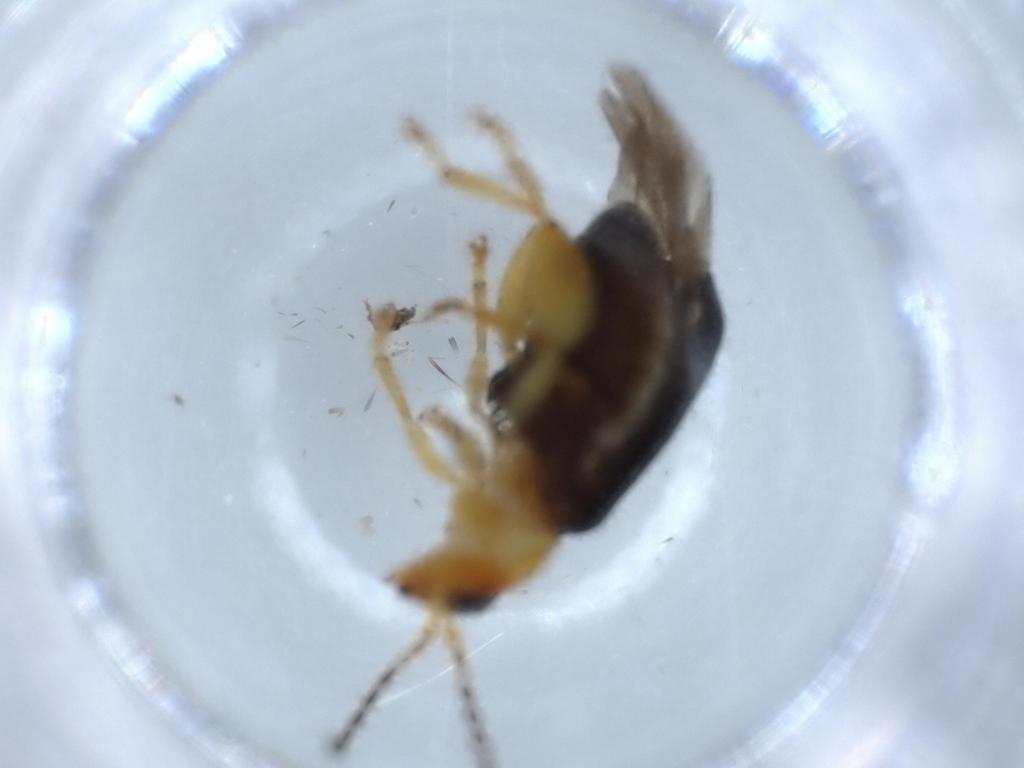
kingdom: Animalia
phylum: Arthropoda
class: Insecta
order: Coleoptera
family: Chrysomelidae
